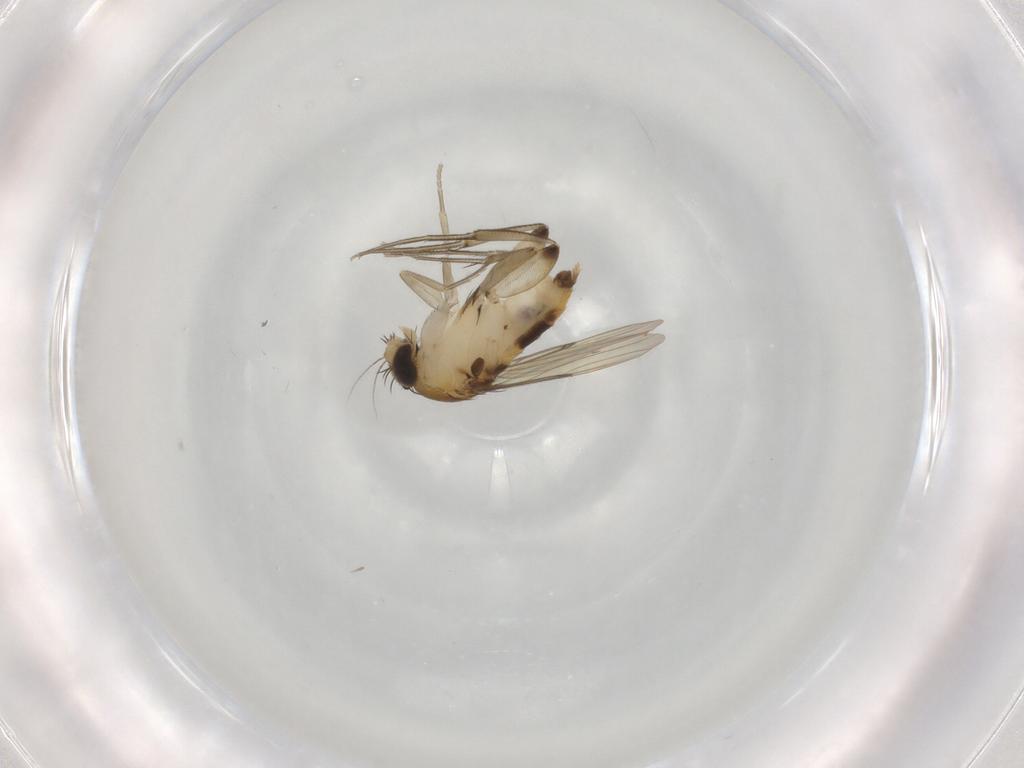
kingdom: Animalia
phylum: Arthropoda
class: Insecta
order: Diptera
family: Phoridae
